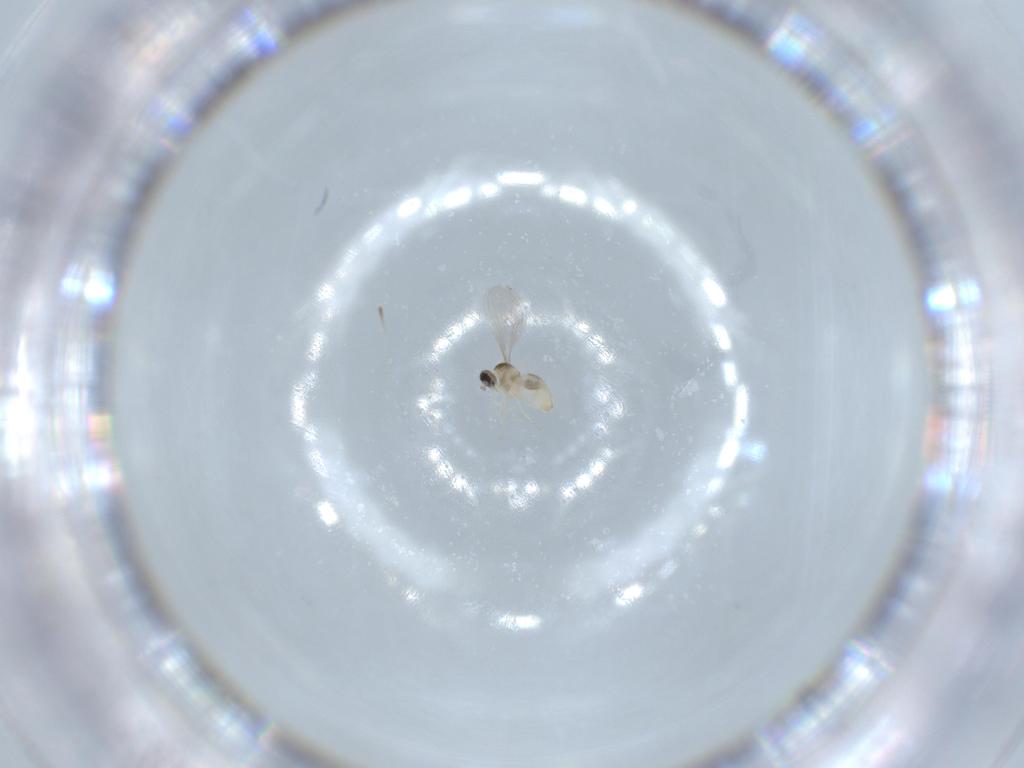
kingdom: Animalia
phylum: Arthropoda
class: Insecta
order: Diptera
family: Cecidomyiidae
